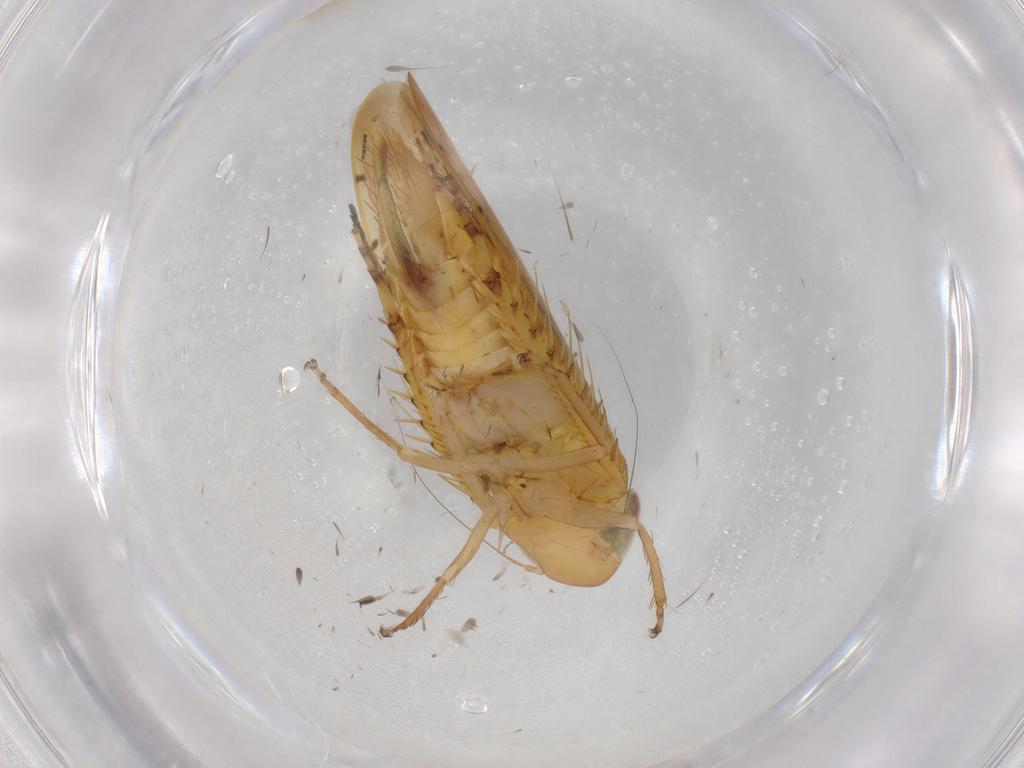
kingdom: Animalia
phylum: Arthropoda
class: Insecta
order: Hemiptera
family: Cicadellidae
